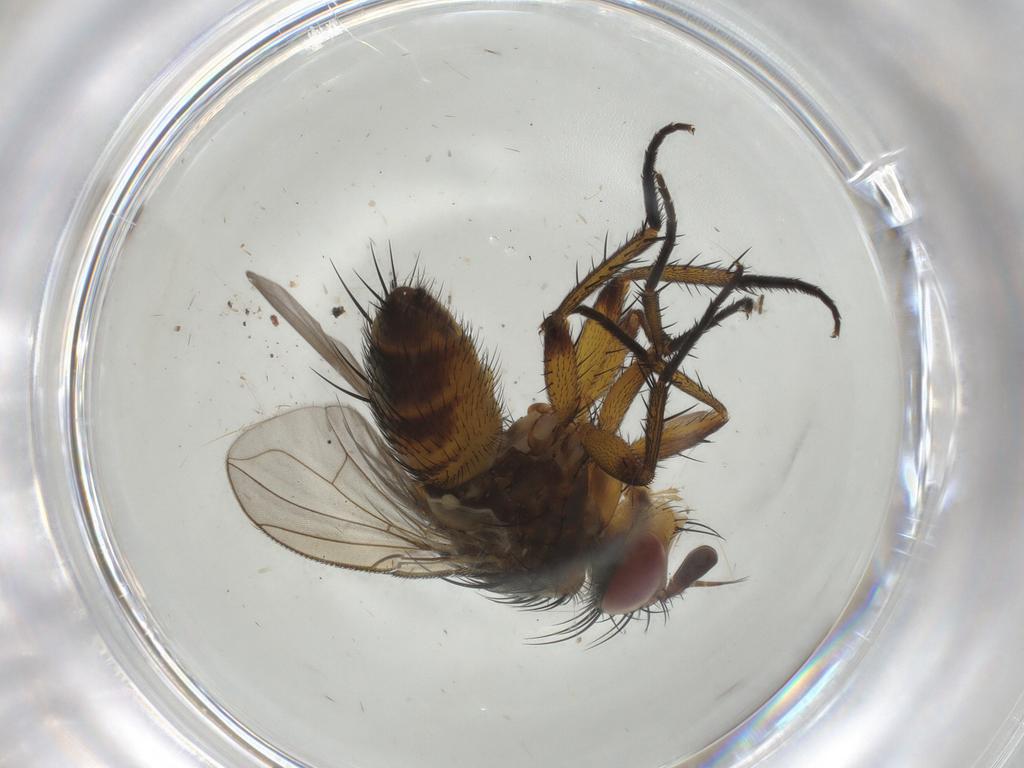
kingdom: Animalia
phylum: Arthropoda
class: Insecta
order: Diptera
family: Tachinidae
